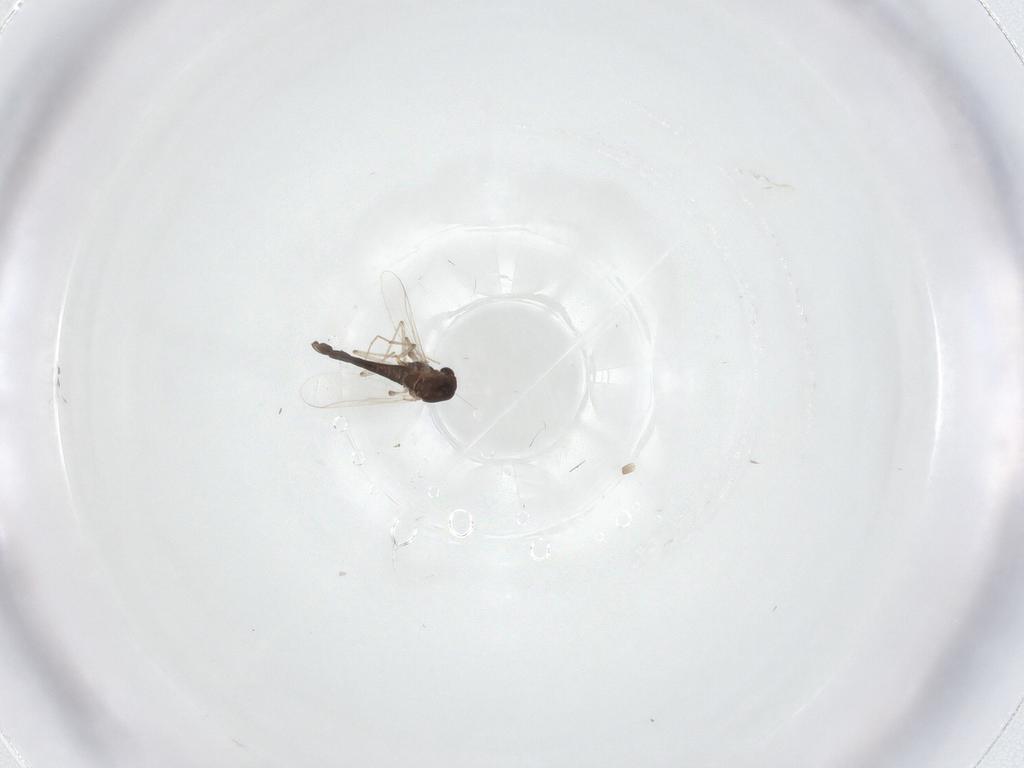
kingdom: Animalia
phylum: Arthropoda
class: Insecta
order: Diptera
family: Chironomidae
